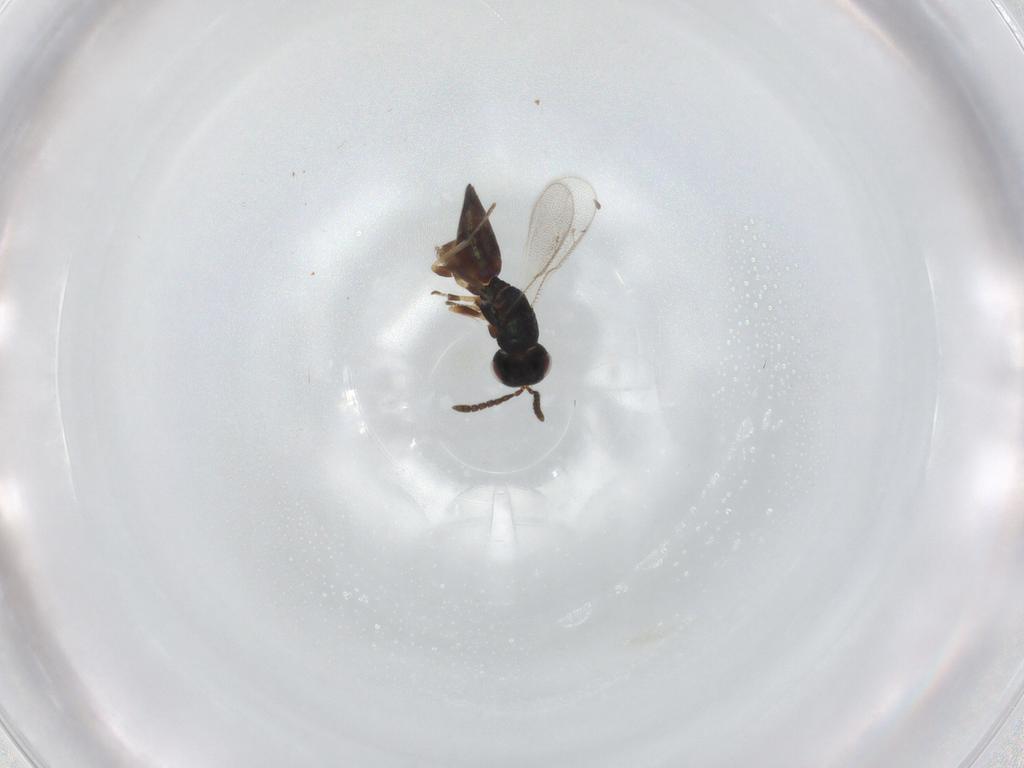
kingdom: Animalia
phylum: Arthropoda
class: Insecta
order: Hymenoptera
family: Pteromalidae
